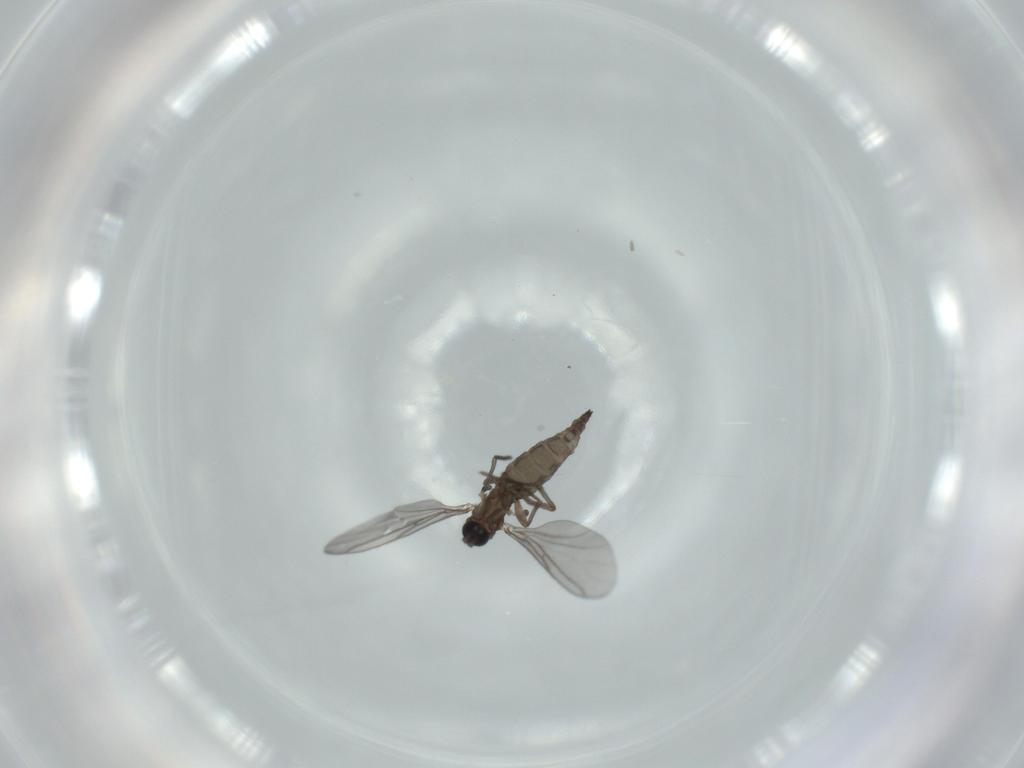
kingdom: Animalia
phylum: Arthropoda
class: Insecta
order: Diptera
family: Cecidomyiidae
